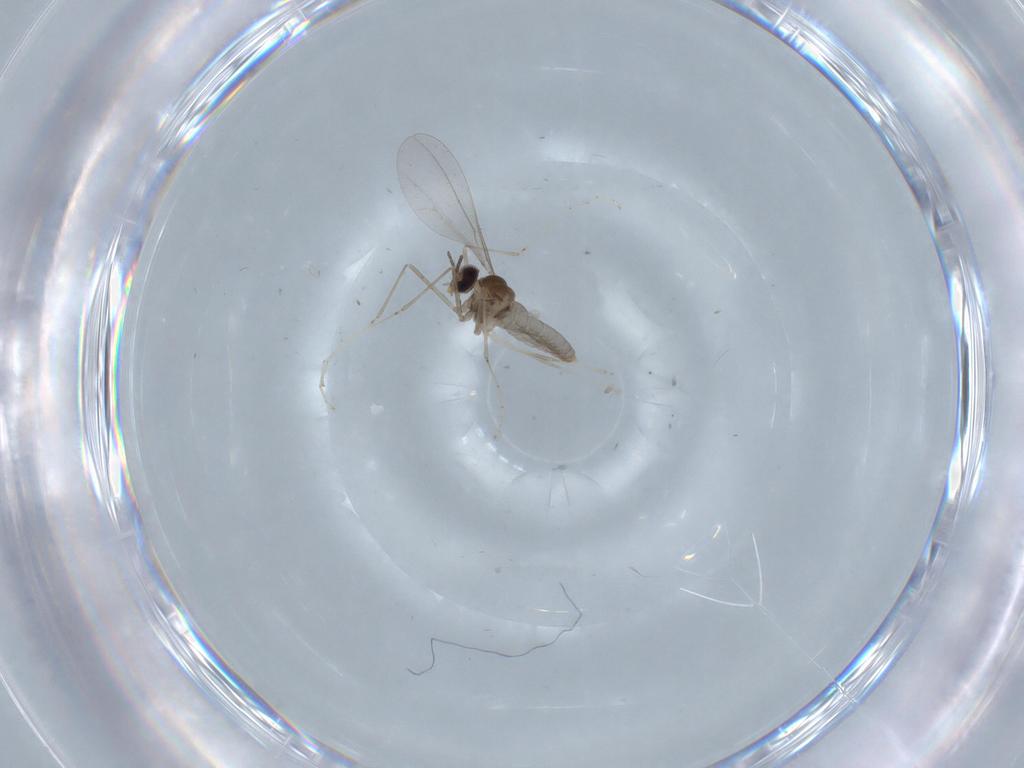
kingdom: Animalia
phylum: Arthropoda
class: Insecta
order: Diptera
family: Cecidomyiidae
